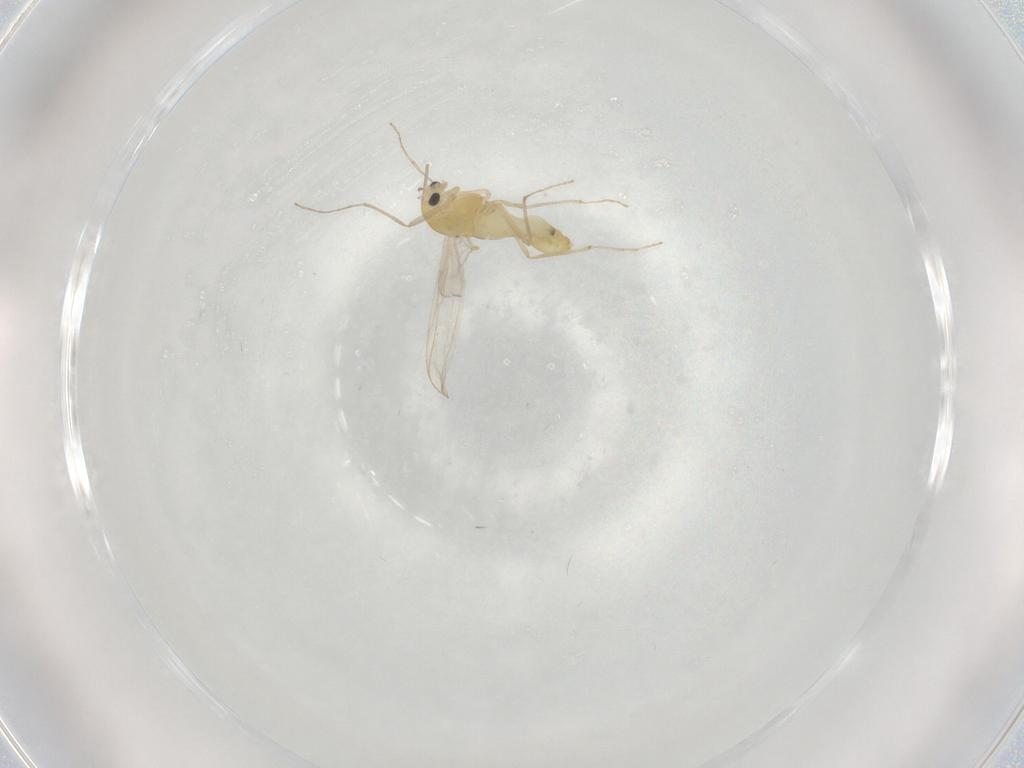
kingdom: Animalia
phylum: Arthropoda
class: Insecta
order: Diptera
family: Chironomidae
